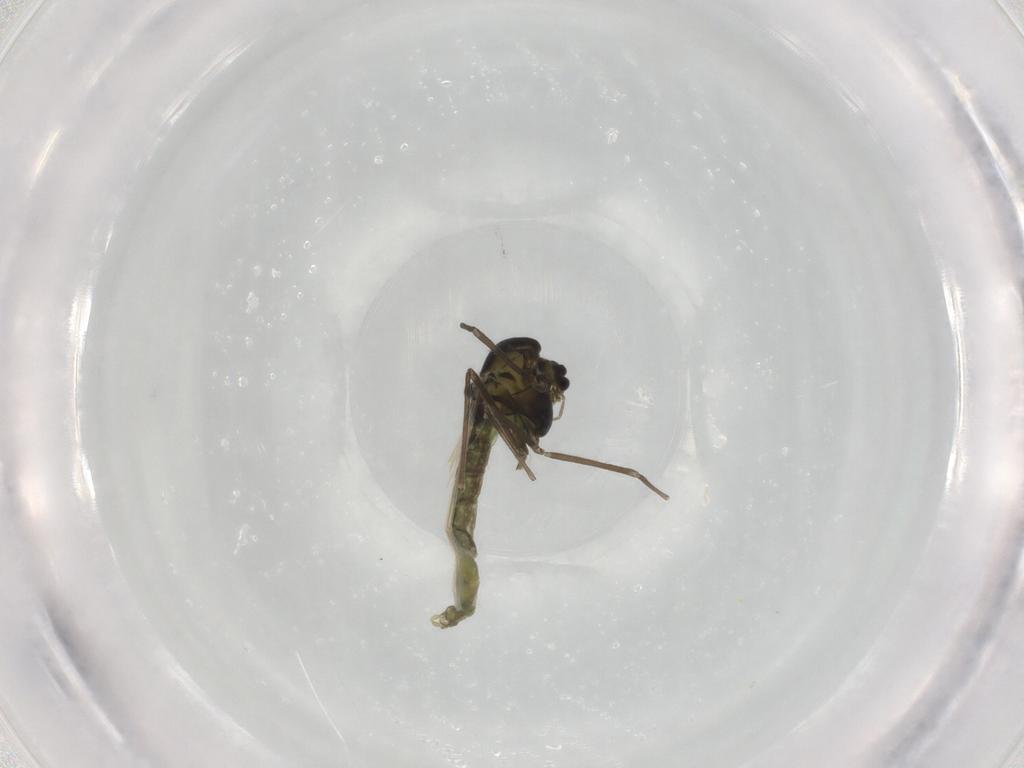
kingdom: Animalia
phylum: Arthropoda
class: Insecta
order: Diptera
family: Chironomidae
